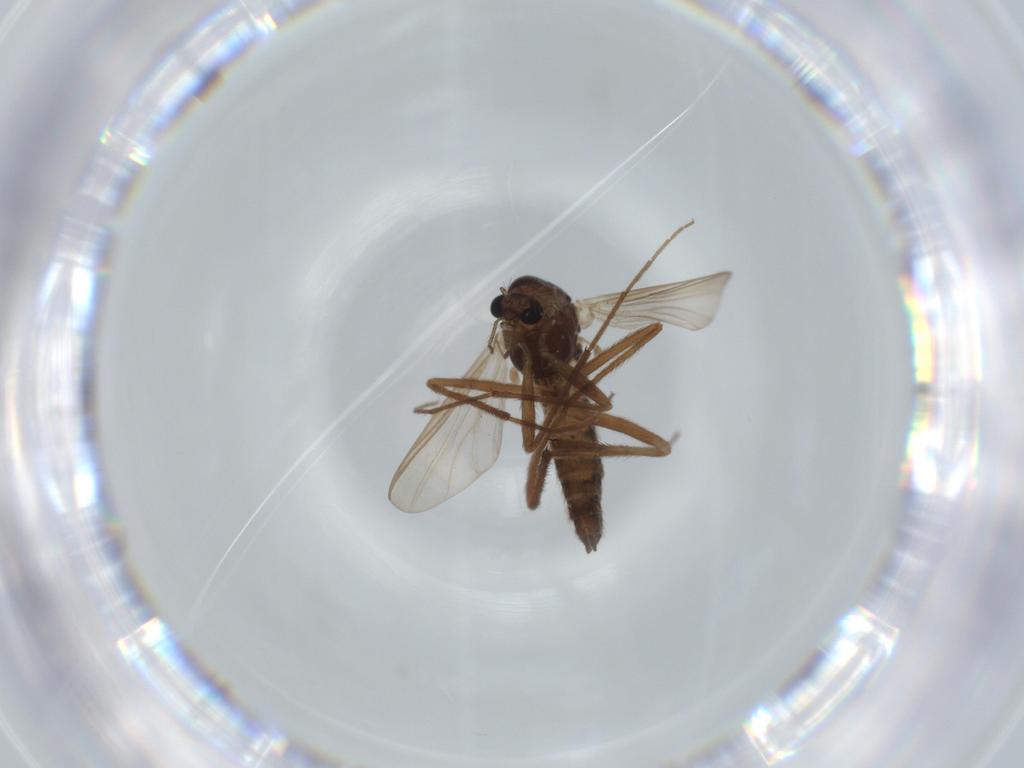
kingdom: Animalia
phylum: Arthropoda
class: Insecta
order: Diptera
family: Chironomidae
